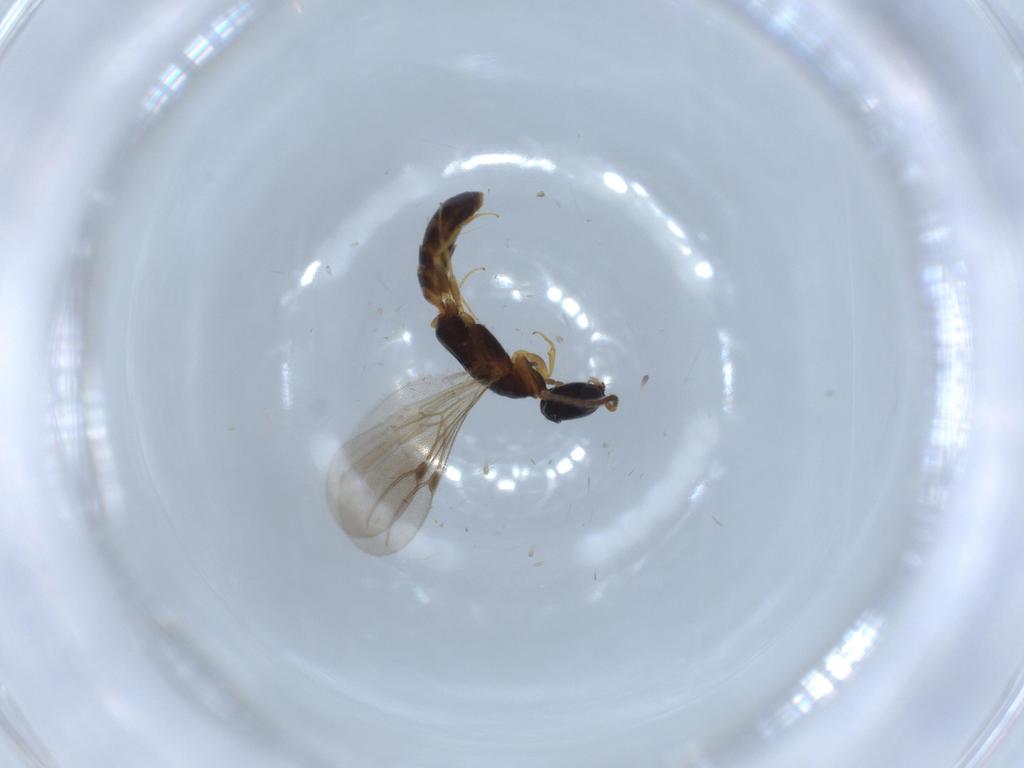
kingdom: Animalia
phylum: Arthropoda
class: Insecta
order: Hymenoptera
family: Bethylidae
